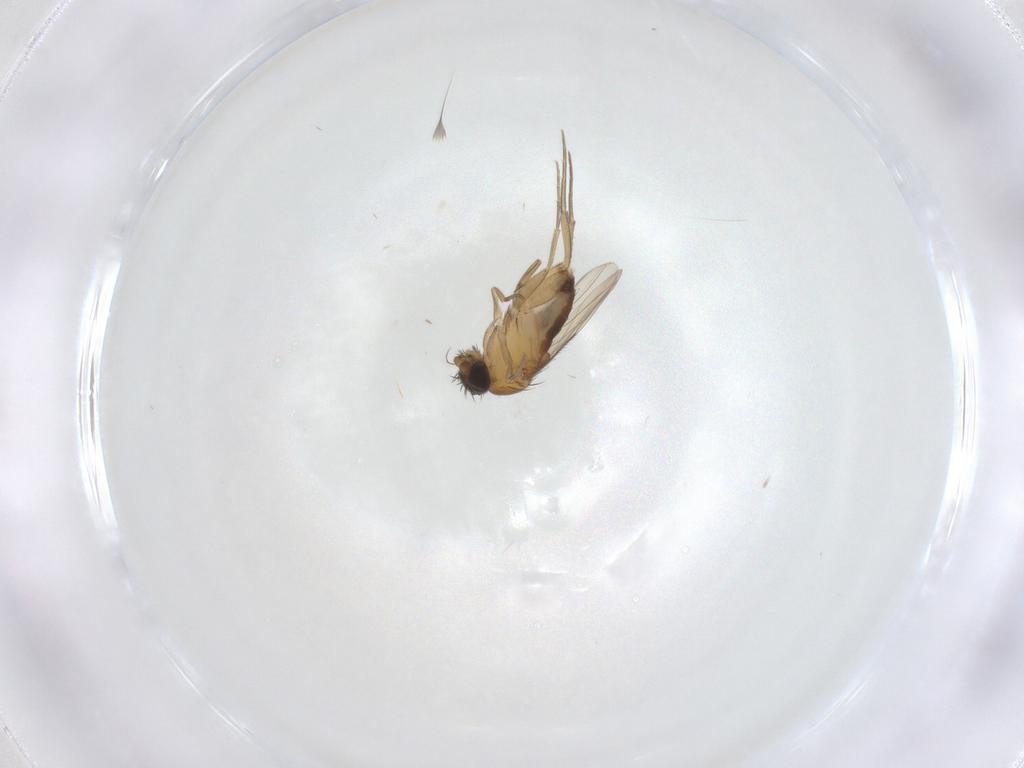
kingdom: Animalia
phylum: Arthropoda
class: Insecta
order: Diptera
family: Phoridae
